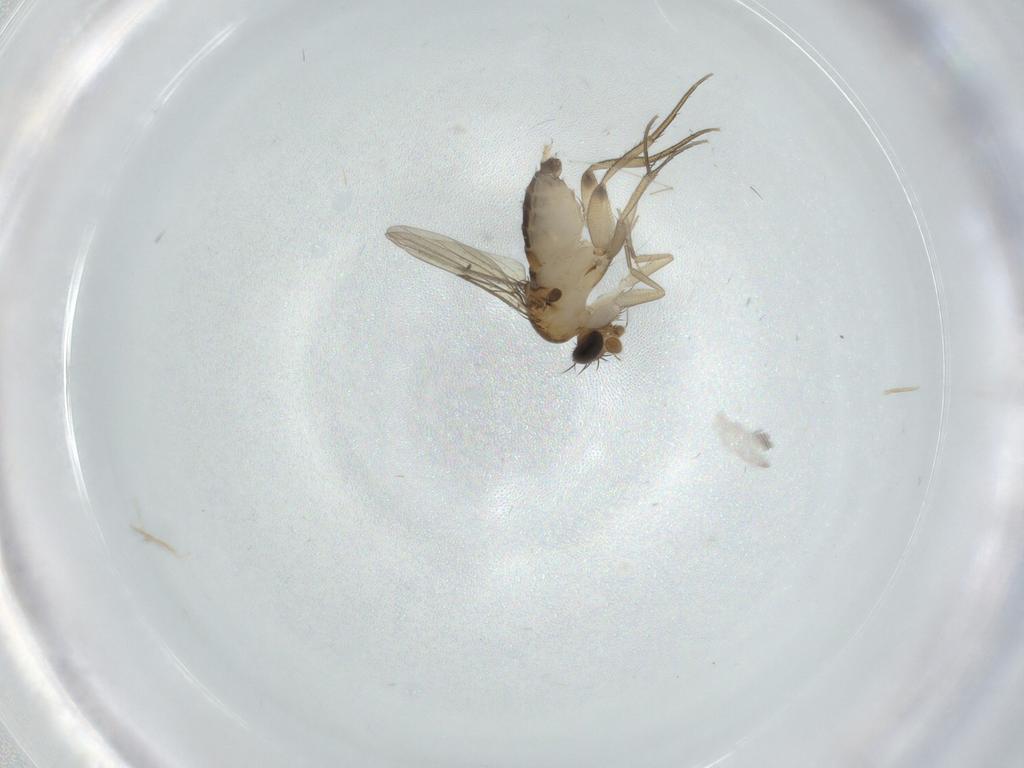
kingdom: Animalia
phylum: Arthropoda
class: Insecta
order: Diptera
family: Phoridae
